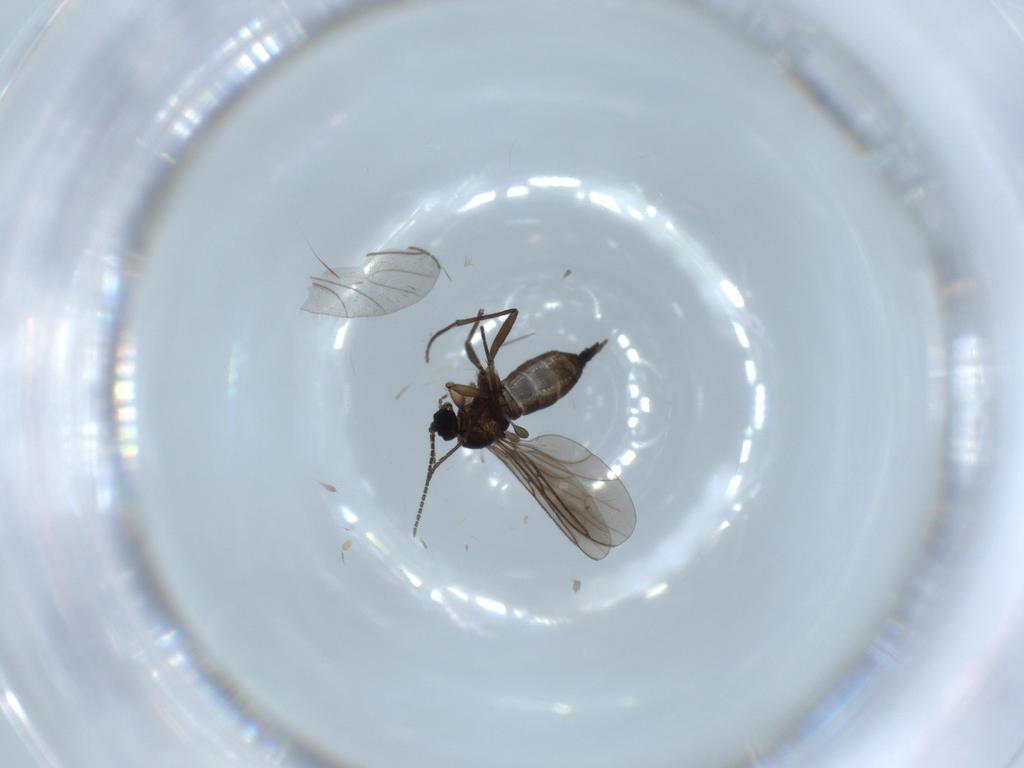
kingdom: Animalia
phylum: Arthropoda
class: Insecta
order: Diptera
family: Sciaridae
